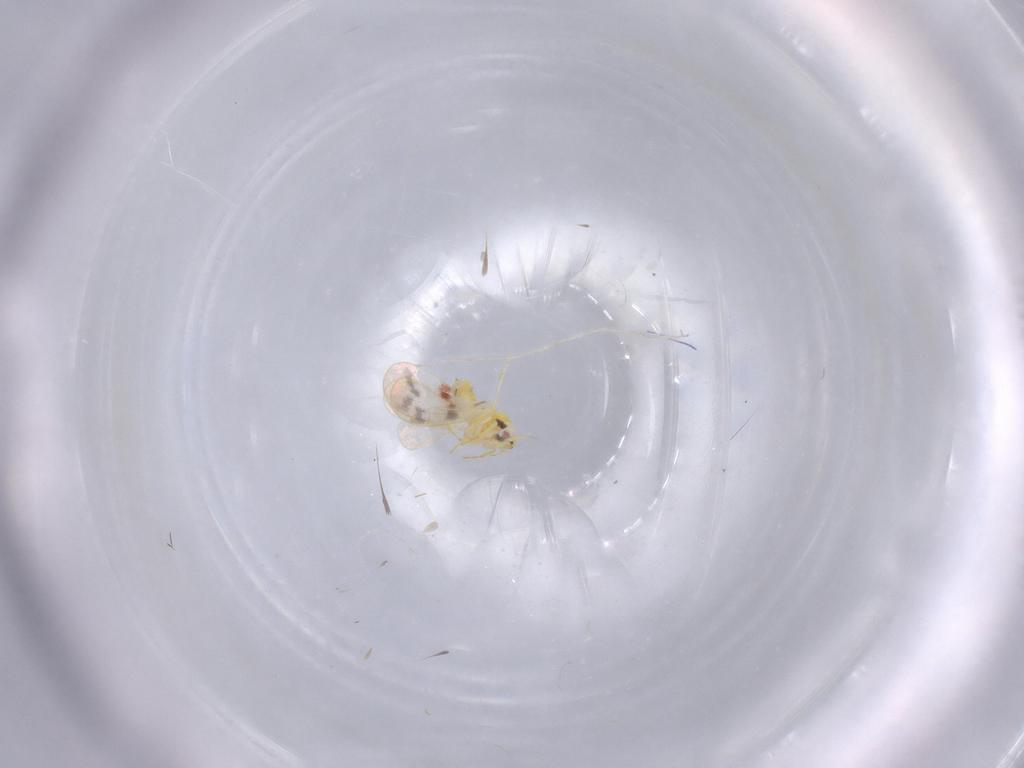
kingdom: Animalia
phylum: Arthropoda
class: Insecta
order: Hemiptera
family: Aleyrodidae
